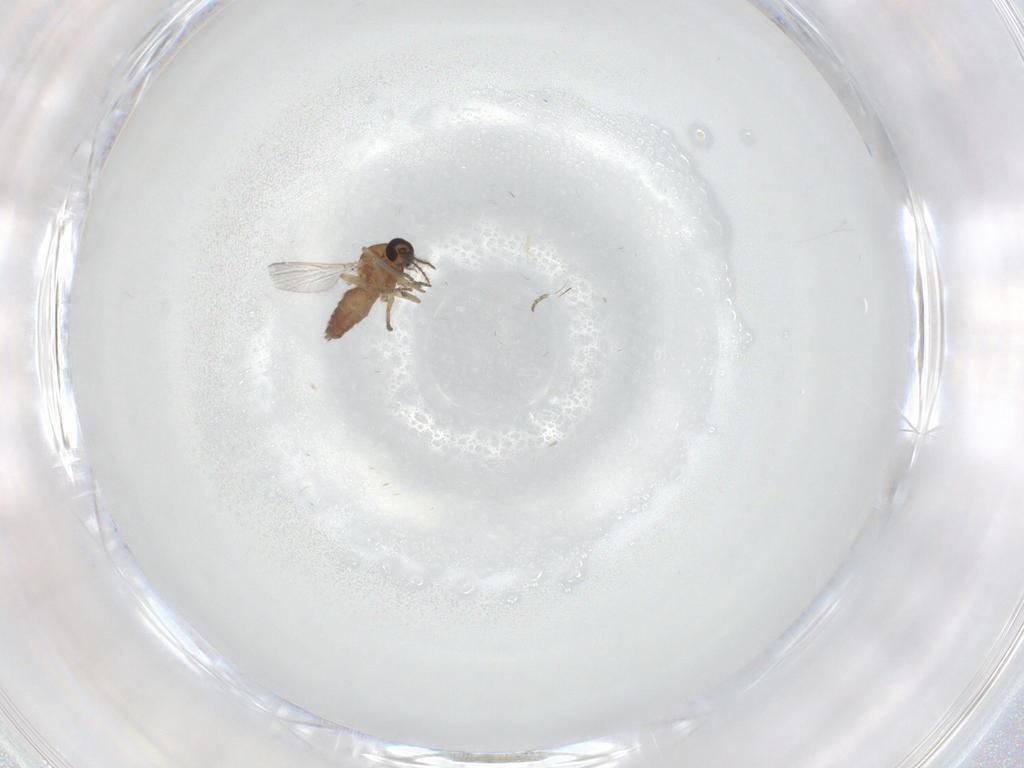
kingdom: Animalia
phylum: Arthropoda
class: Insecta
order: Diptera
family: Ceratopogonidae
